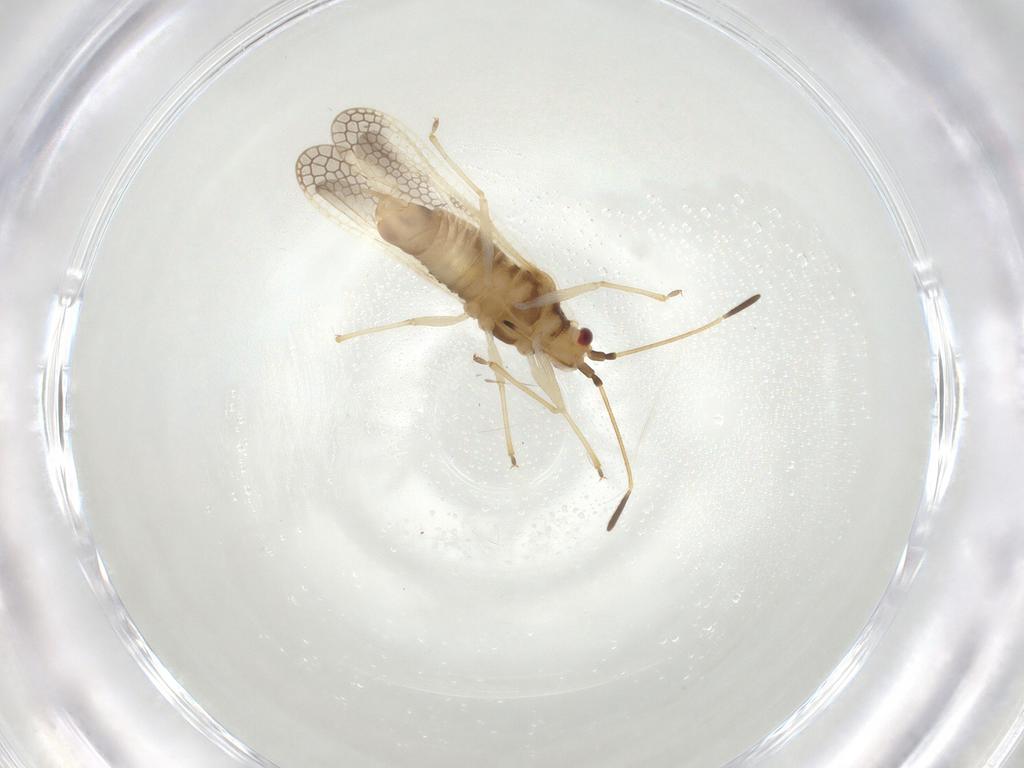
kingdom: Animalia
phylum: Arthropoda
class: Insecta
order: Hemiptera
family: Tingidae
